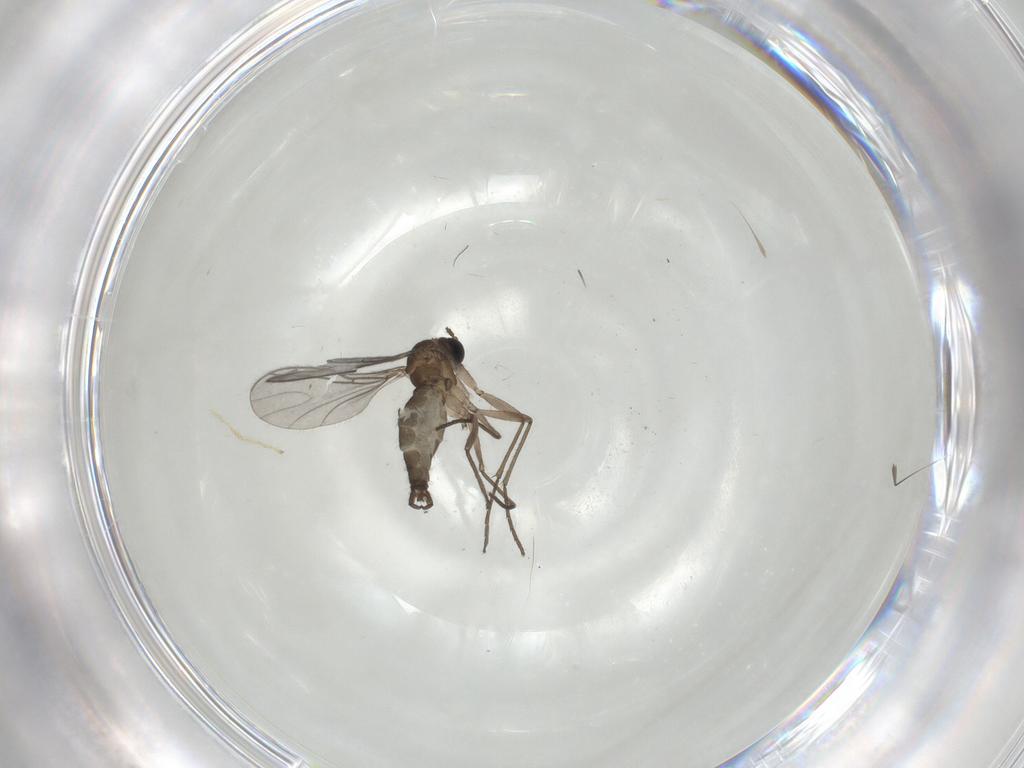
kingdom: Animalia
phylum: Arthropoda
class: Insecta
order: Diptera
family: Sciaridae
